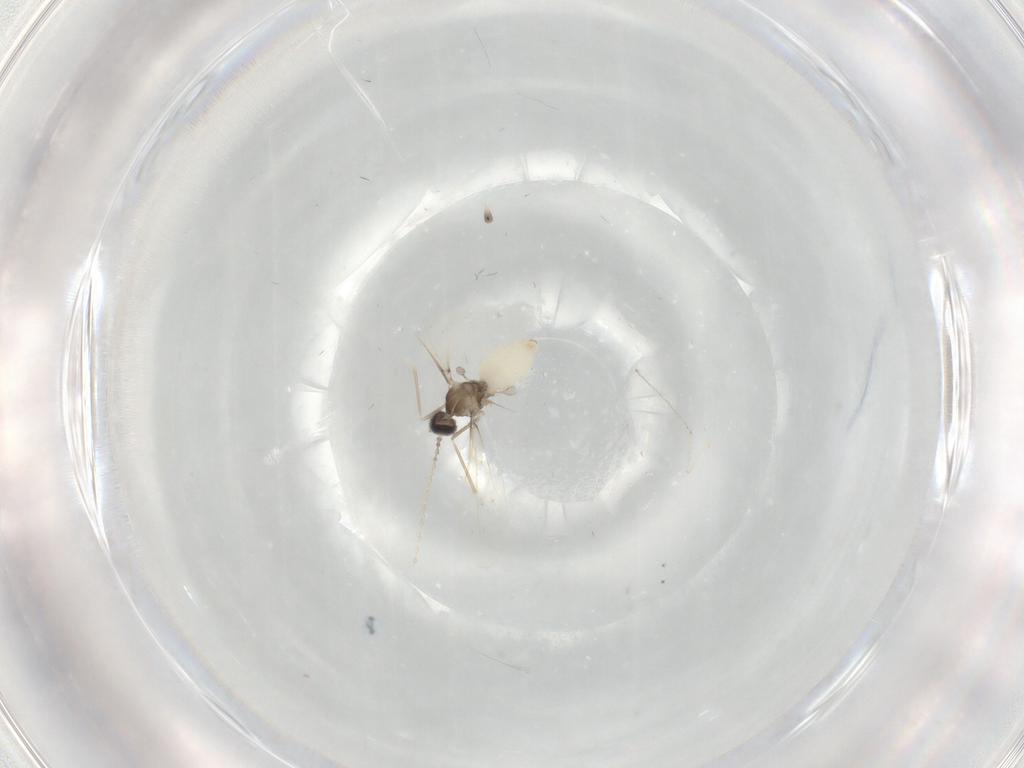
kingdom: Animalia
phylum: Arthropoda
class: Insecta
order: Diptera
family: Cecidomyiidae
